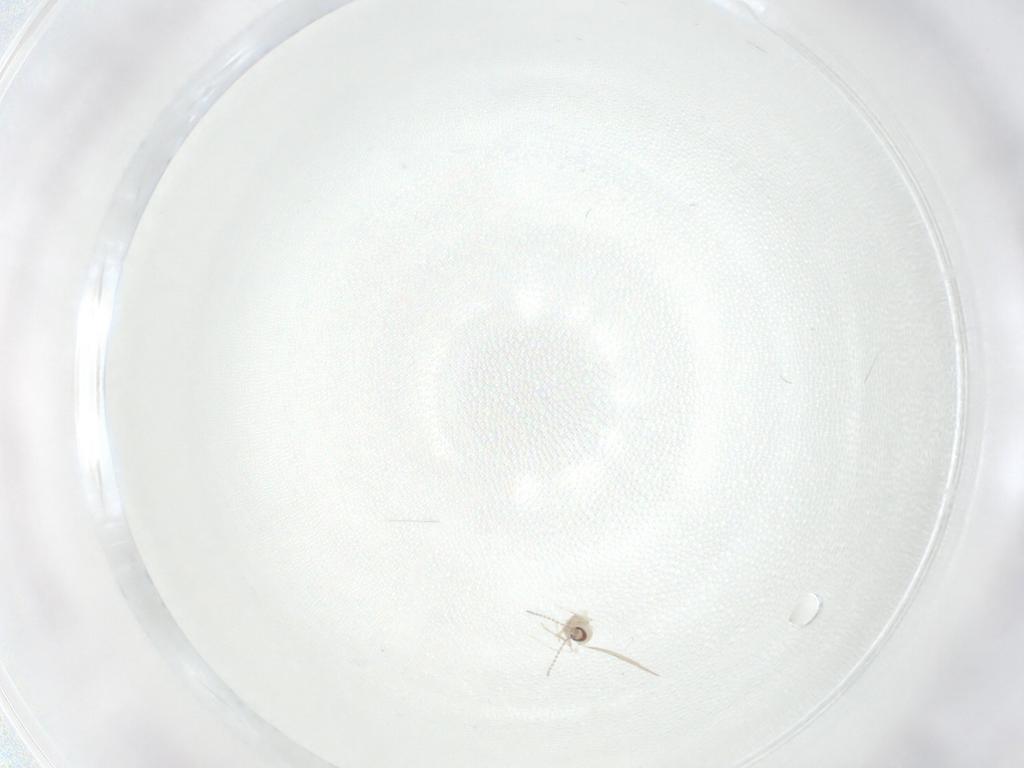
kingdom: Animalia
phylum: Arthropoda
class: Insecta
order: Diptera
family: Cecidomyiidae
